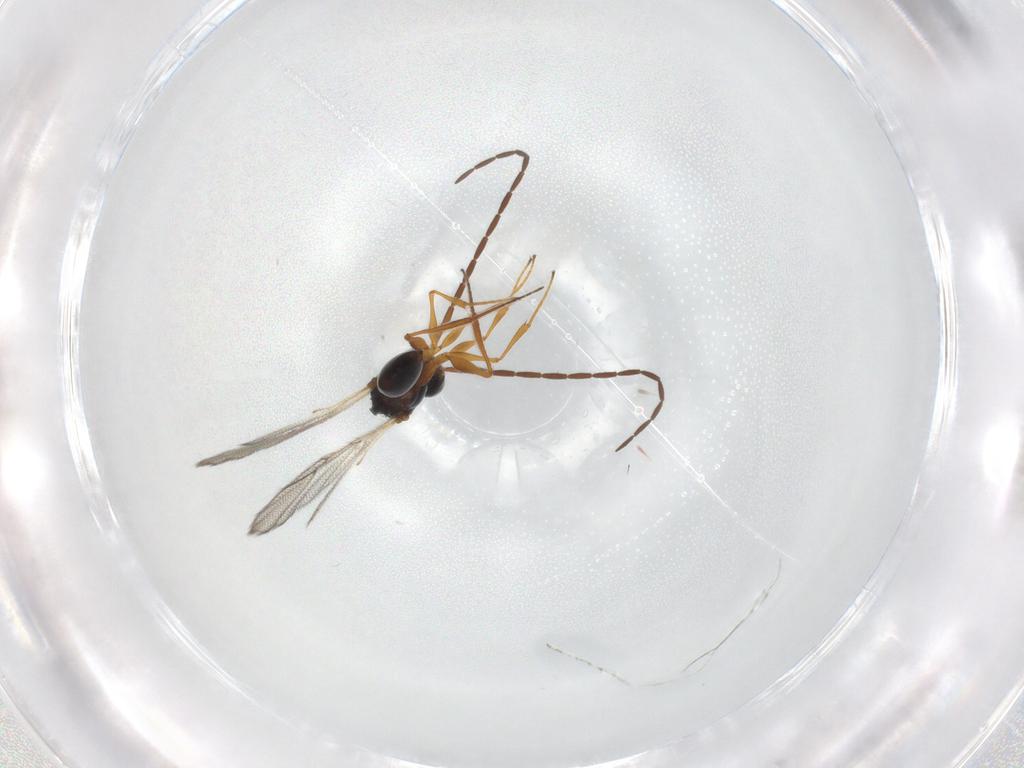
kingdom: Animalia
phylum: Arthropoda
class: Insecta
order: Hymenoptera
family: Figitidae
